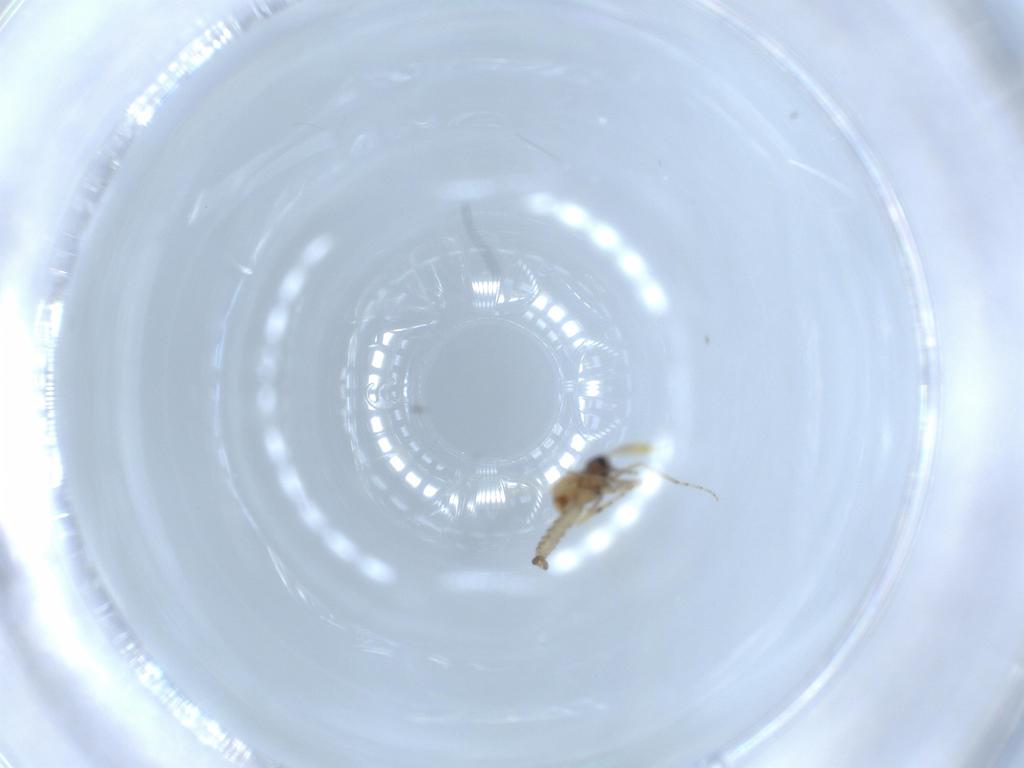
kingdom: Animalia
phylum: Arthropoda
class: Insecta
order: Diptera
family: Ceratopogonidae
